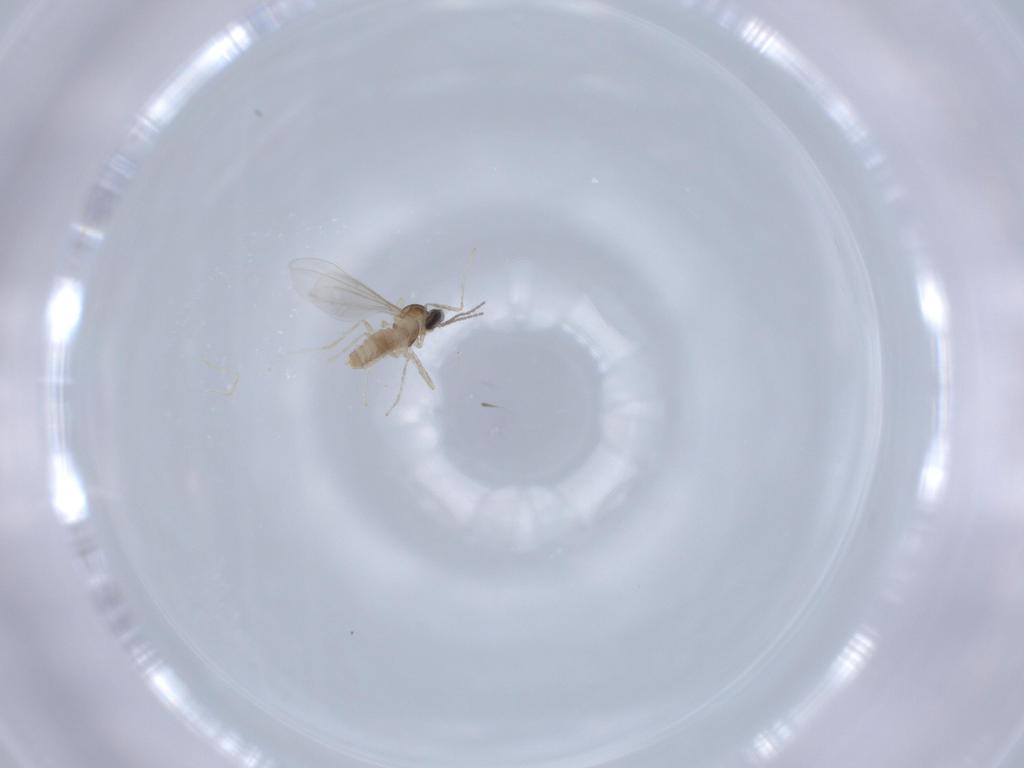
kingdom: Animalia
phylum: Arthropoda
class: Insecta
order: Diptera
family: Cecidomyiidae
